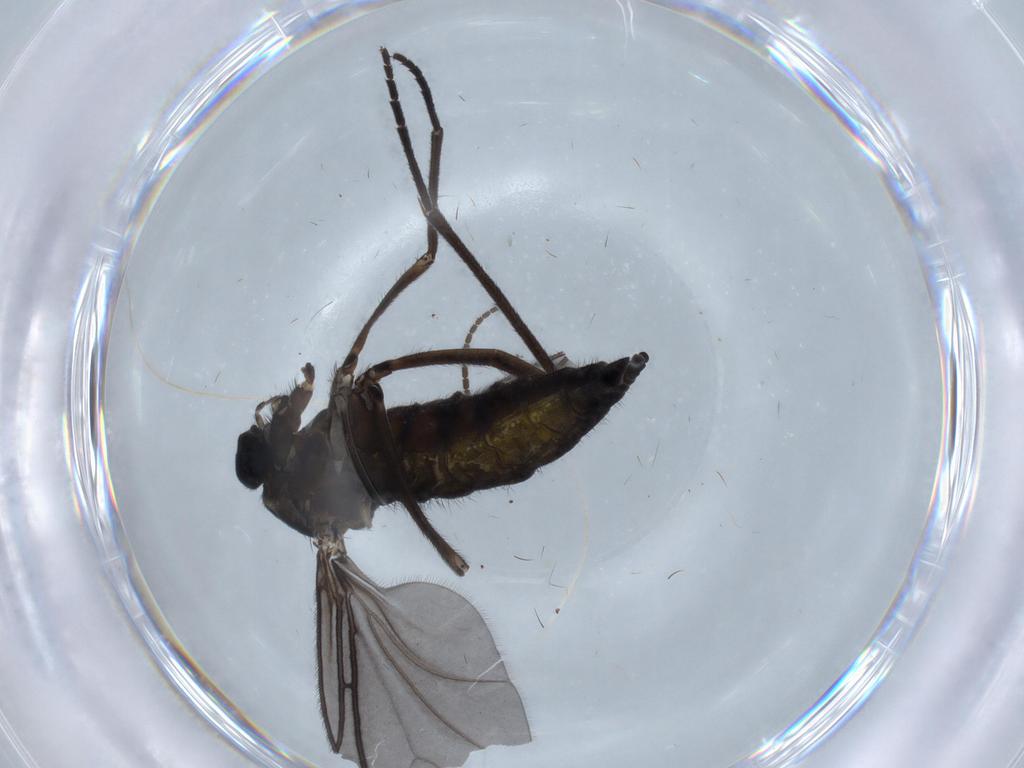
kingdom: Animalia
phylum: Arthropoda
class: Insecta
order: Diptera
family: Sciaridae
